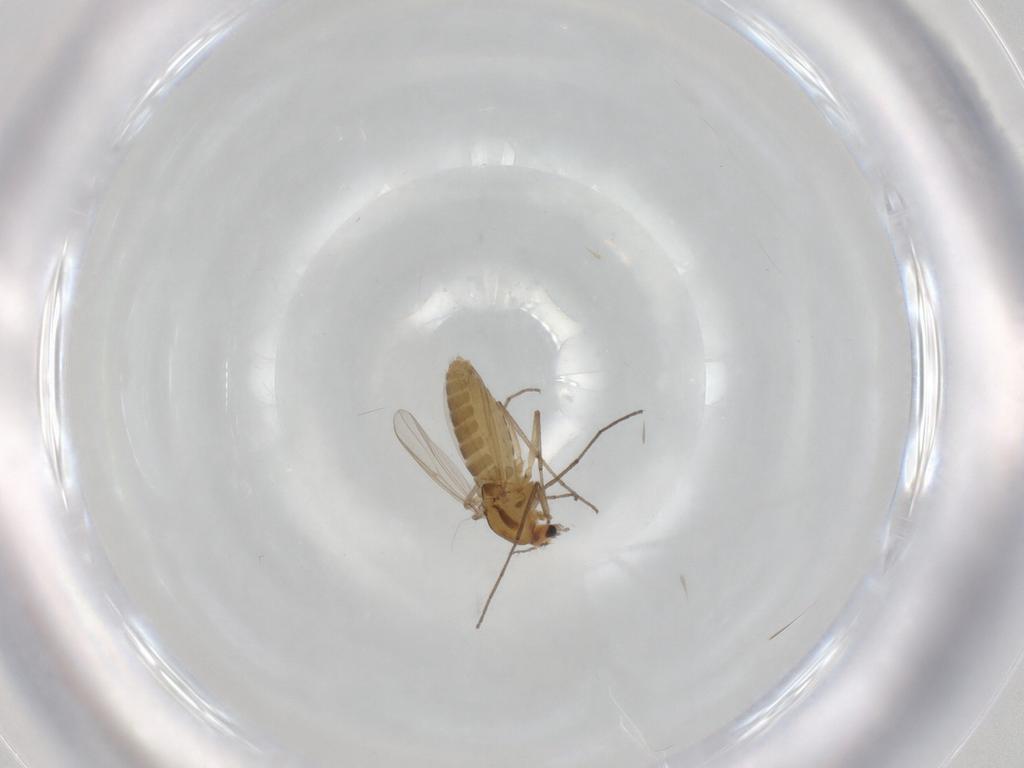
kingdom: Animalia
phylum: Arthropoda
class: Insecta
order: Diptera
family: Chironomidae
